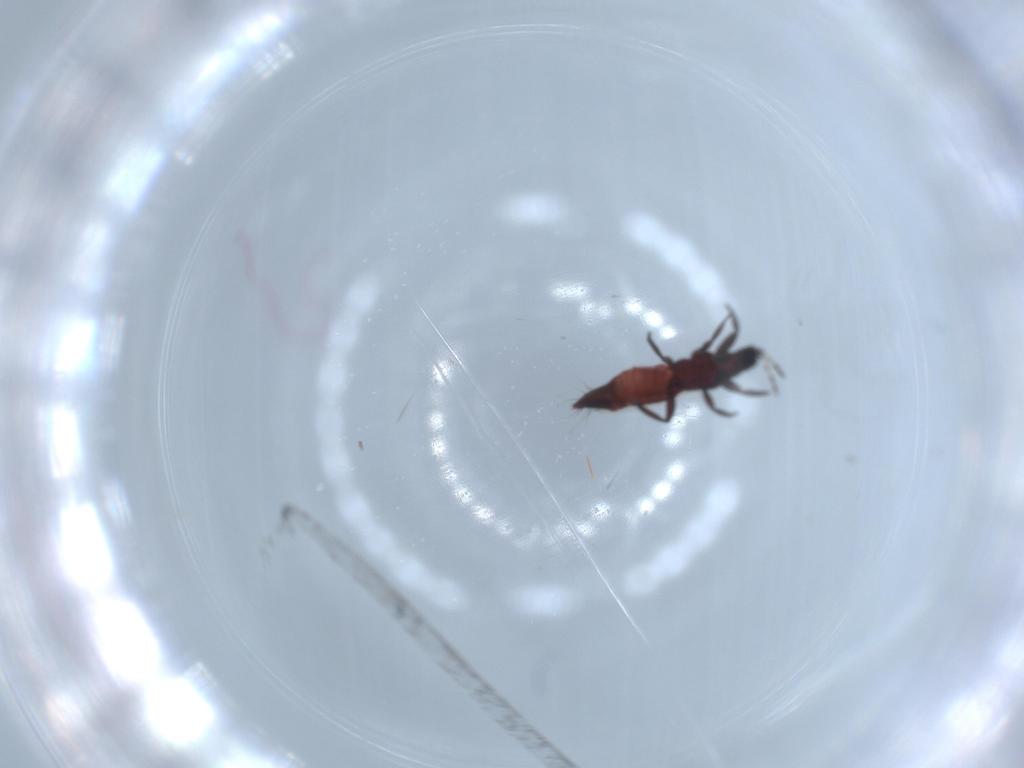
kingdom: Animalia
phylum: Arthropoda
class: Insecta
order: Thysanoptera
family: Aeolothripidae
